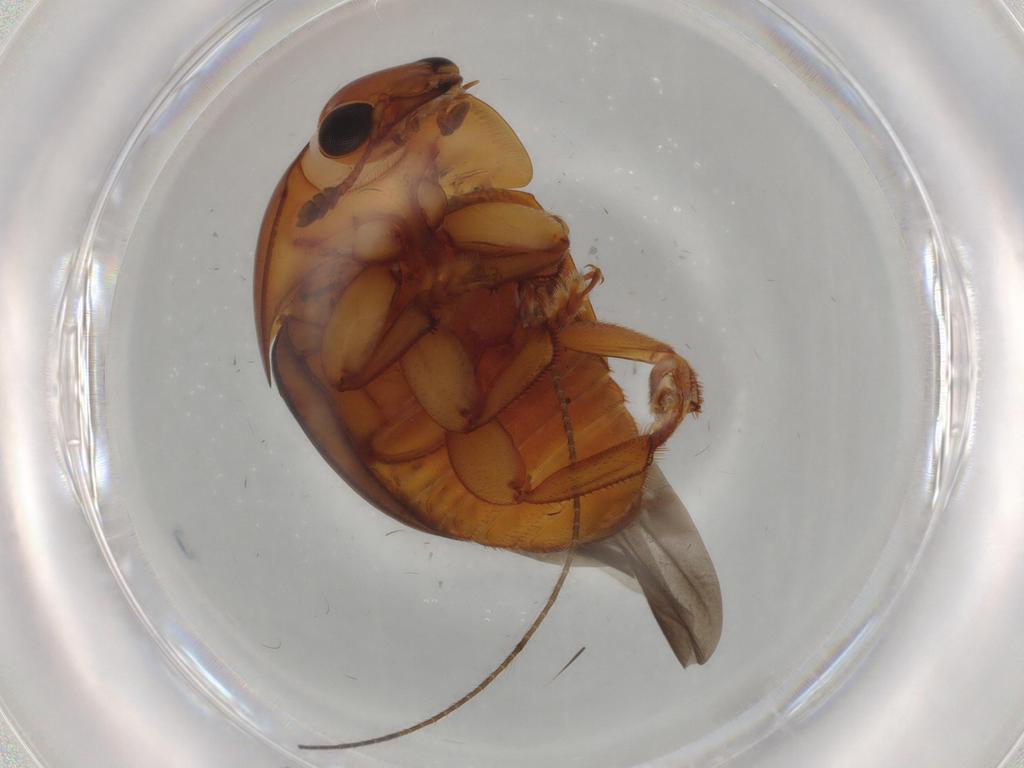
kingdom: Animalia
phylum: Arthropoda
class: Insecta
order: Coleoptera
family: Nitidulidae
